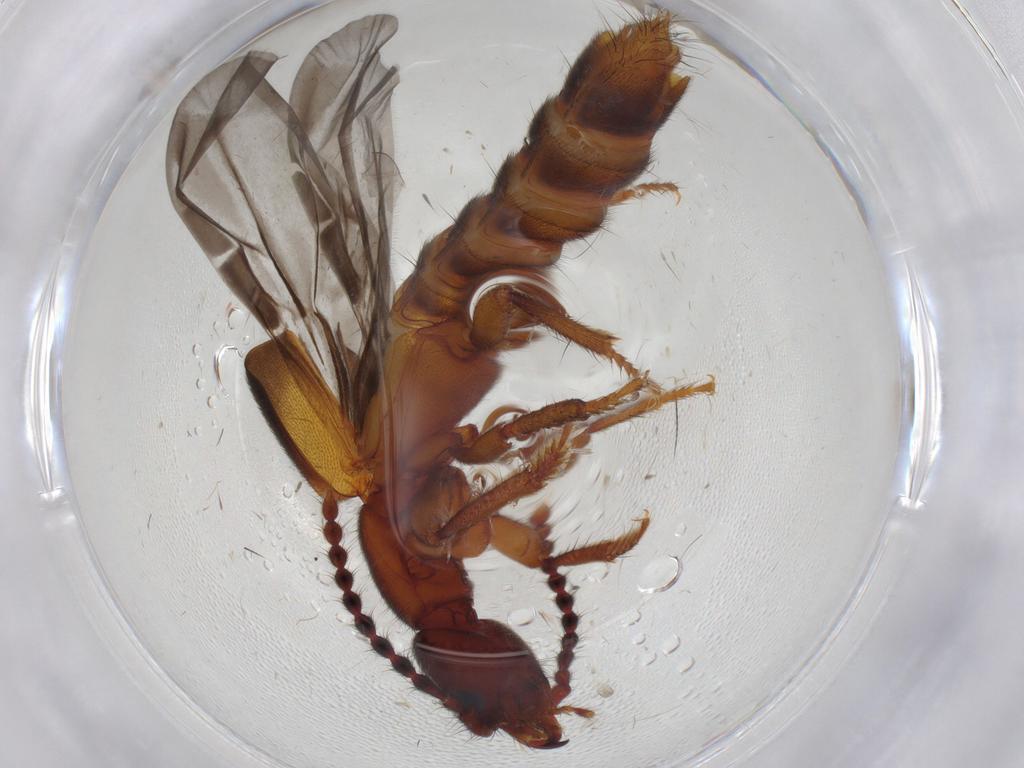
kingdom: Animalia
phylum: Arthropoda
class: Insecta
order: Coleoptera
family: Staphylinidae
